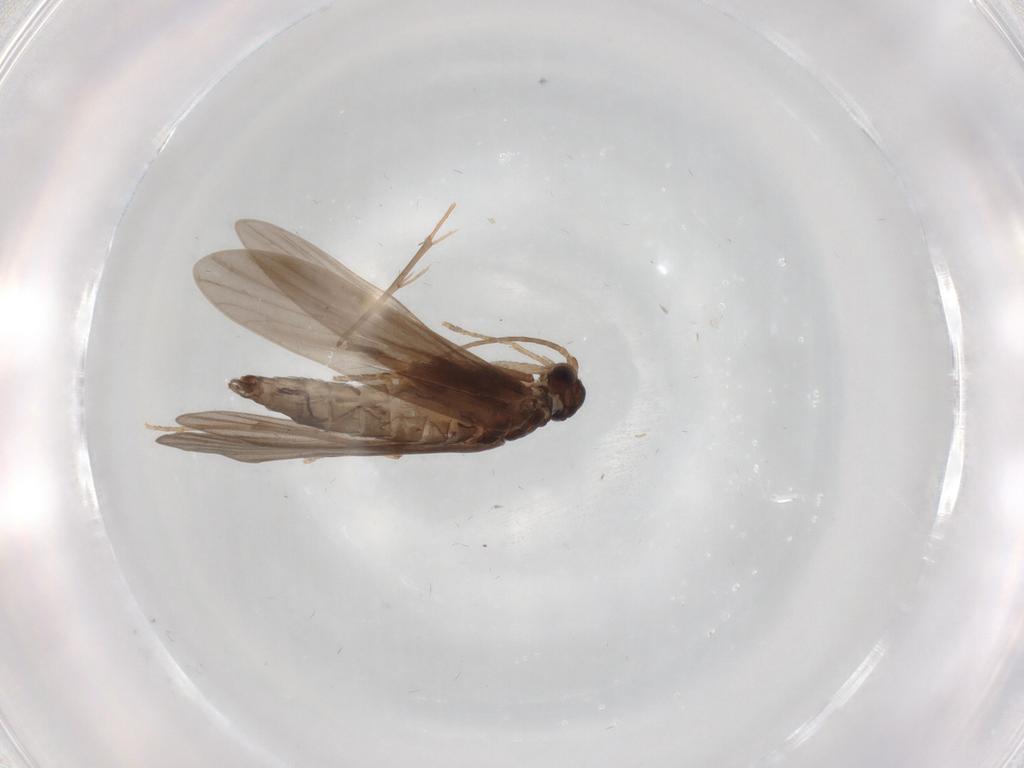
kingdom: Animalia
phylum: Arthropoda
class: Insecta
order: Trichoptera
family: Xiphocentronidae
